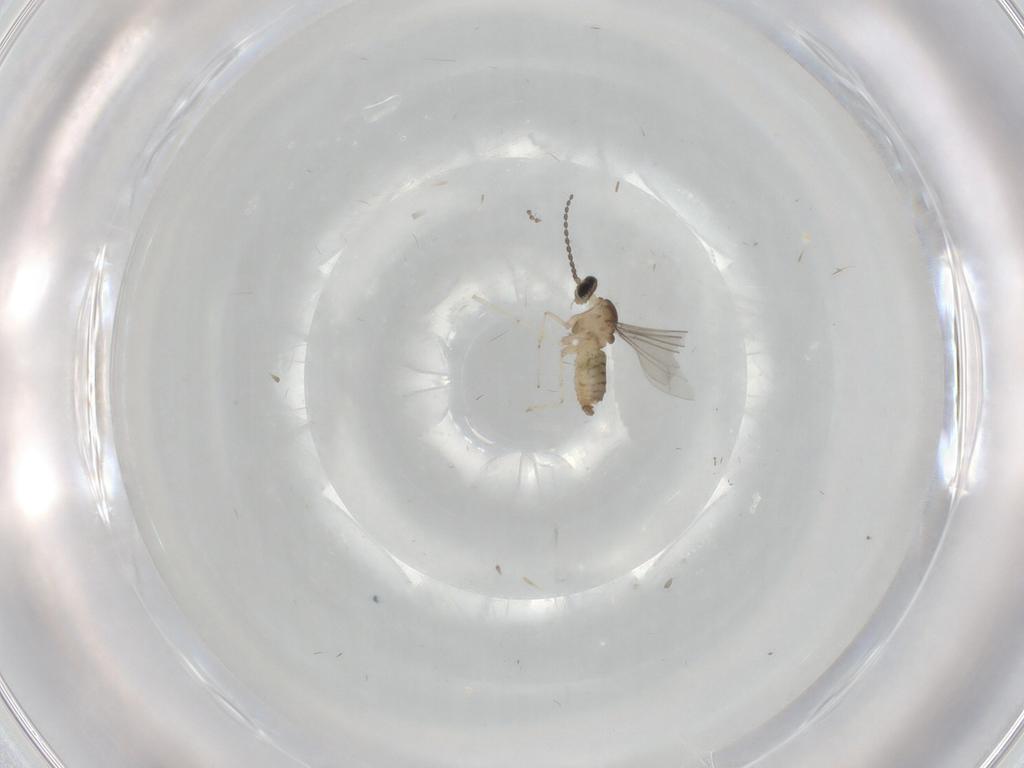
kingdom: Animalia
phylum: Arthropoda
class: Insecta
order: Diptera
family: Cecidomyiidae
